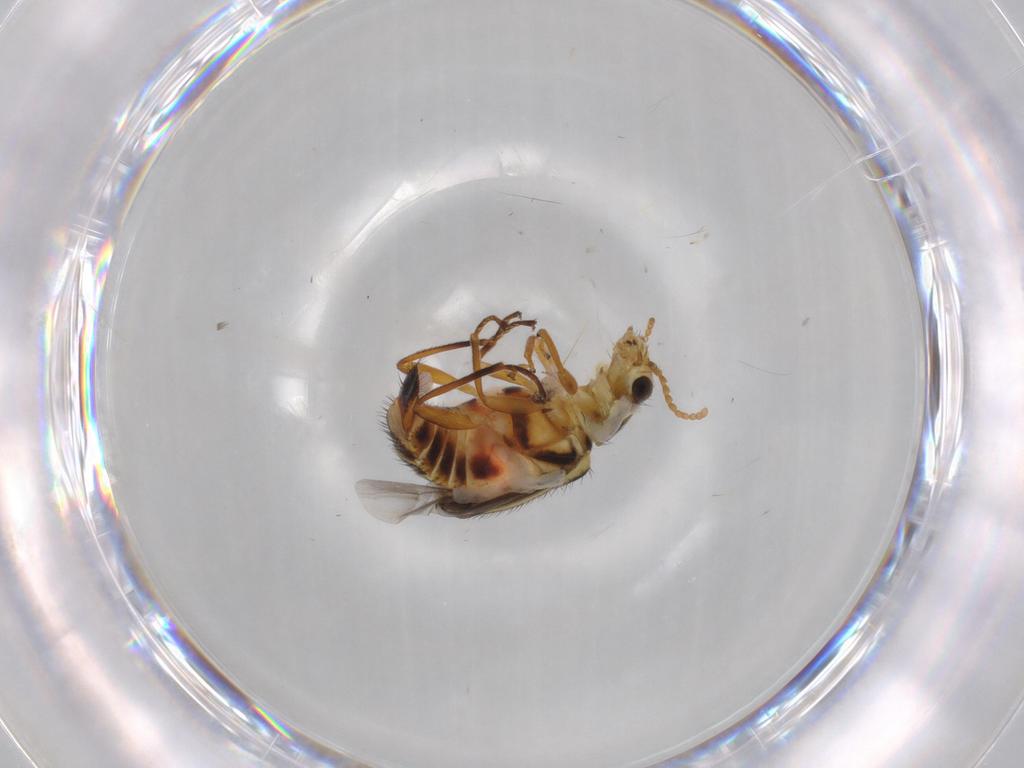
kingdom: Animalia
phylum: Arthropoda
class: Insecta
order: Coleoptera
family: Melyridae
